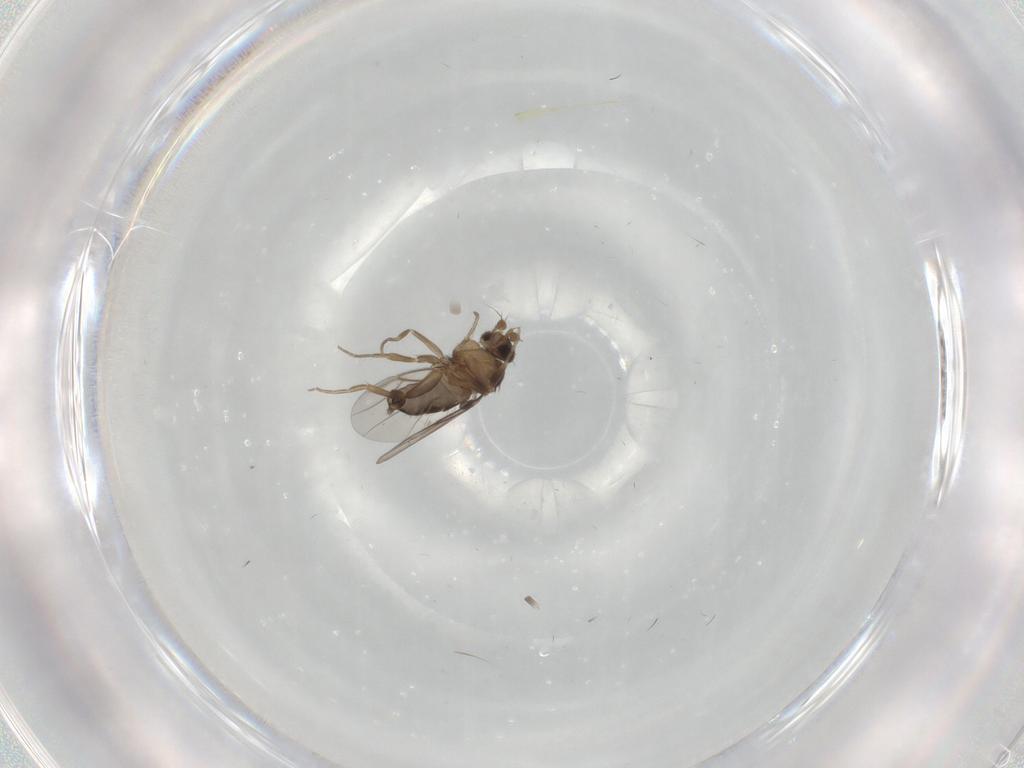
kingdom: Animalia
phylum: Arthropoda
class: Insecta
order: Diptera
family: Phoridae
